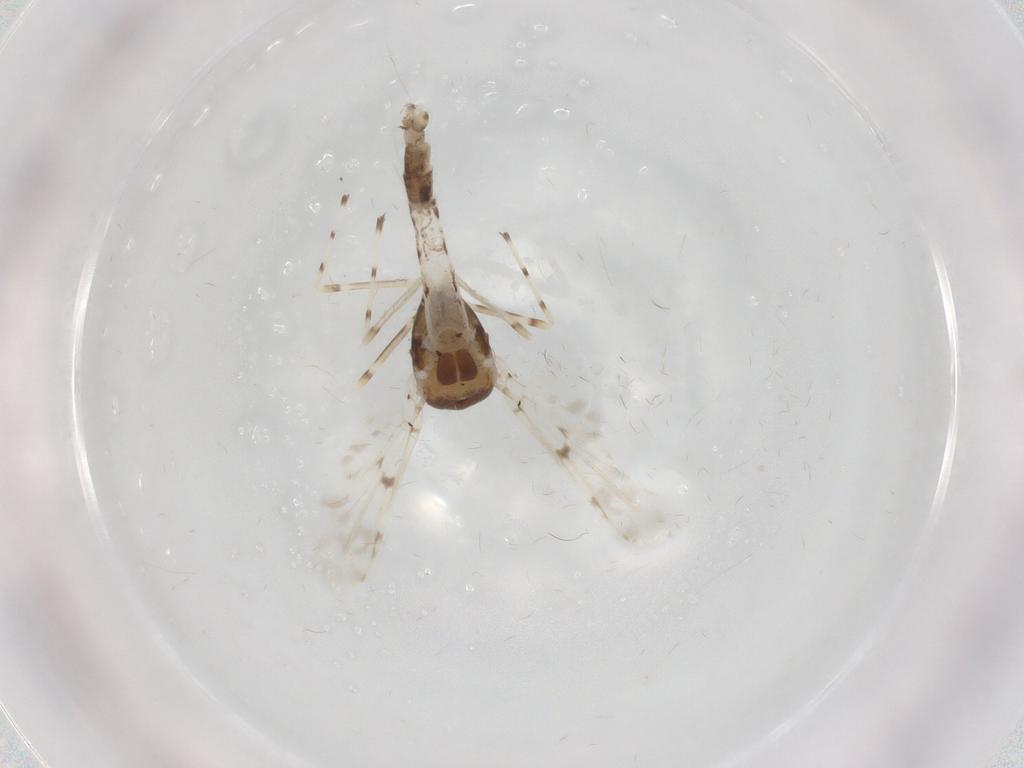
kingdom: Animalia
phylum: Arthropoda
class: Insecta
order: Diptera
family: Chironomidae
